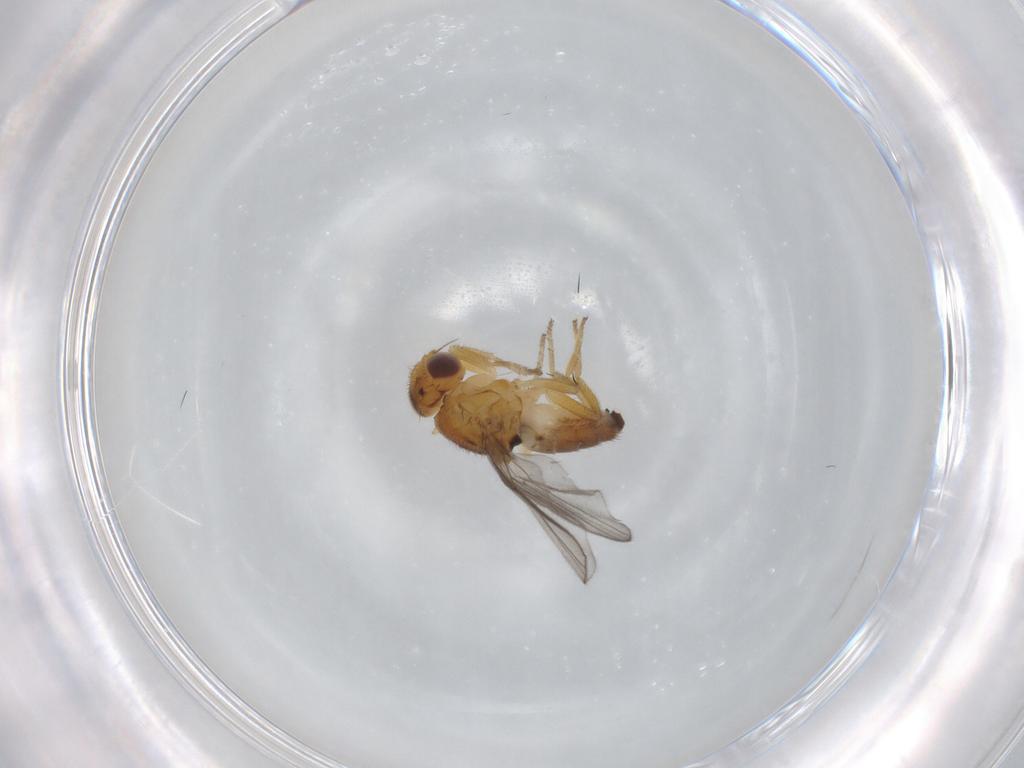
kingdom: Animalia
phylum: Arthropoda
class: Insecta
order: Diptera
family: Chloropidae
